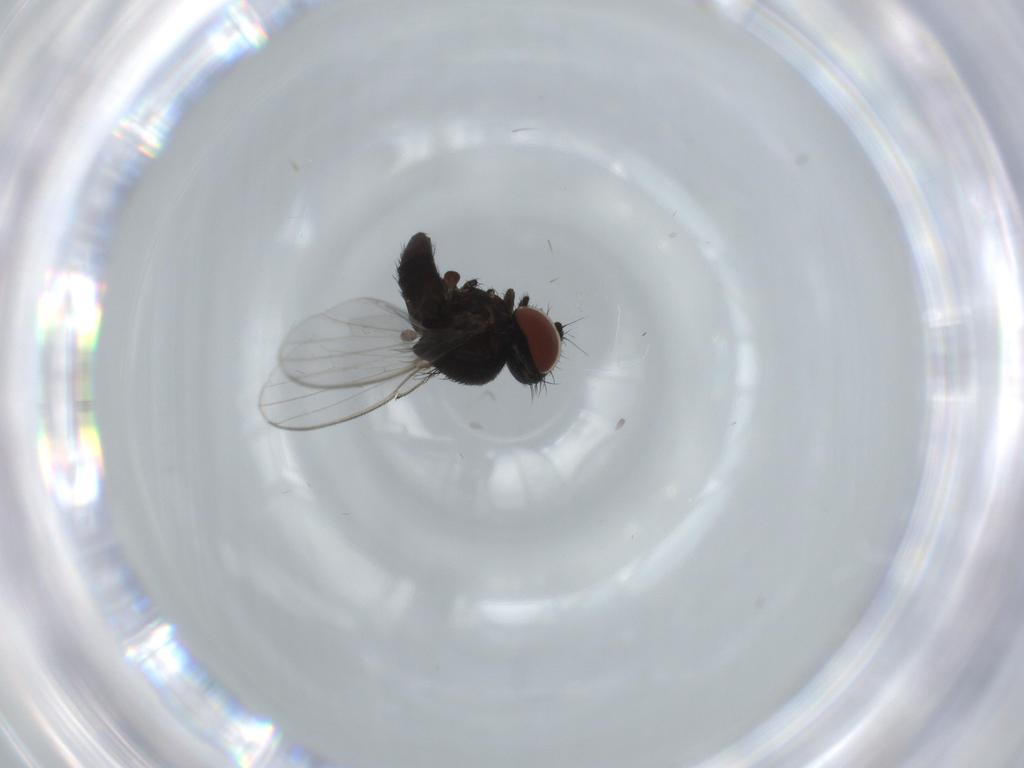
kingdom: Animalia
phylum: Arthropoda
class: Insecta
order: Diptera
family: Milichiidae
